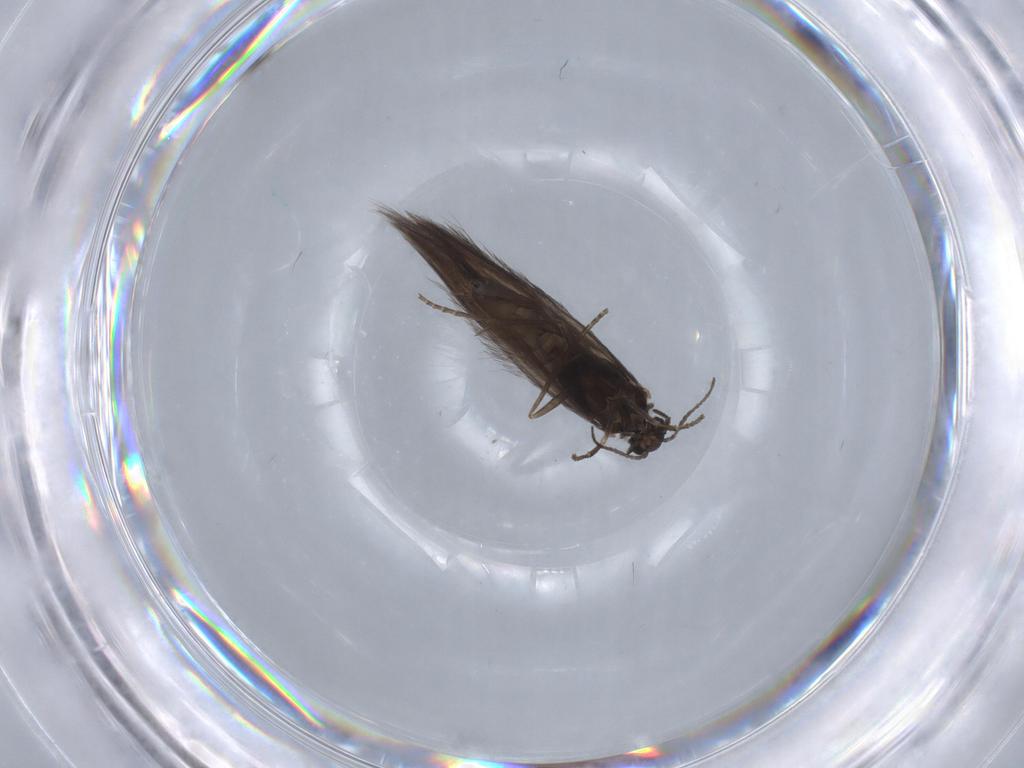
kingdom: Animalia
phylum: Arthropoda
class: Insecta
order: Trichoptera
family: Hydroptilidae
